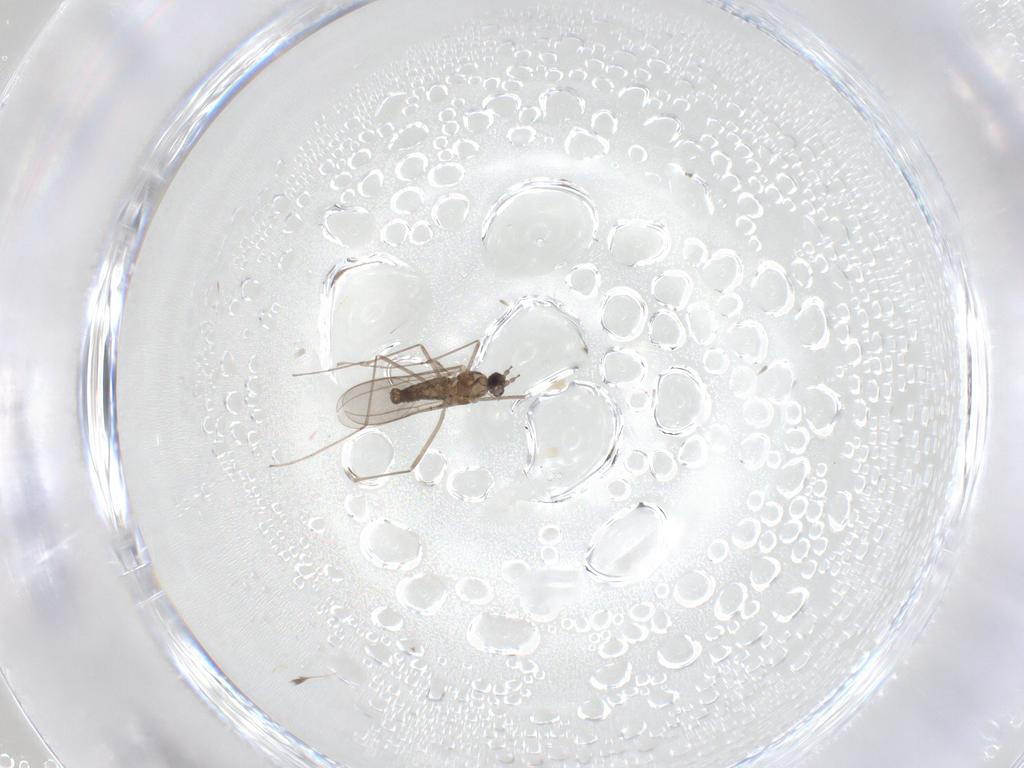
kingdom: Animalia
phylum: Arthropoda
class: Insecta
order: Diptera
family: Cecidomyiidae
